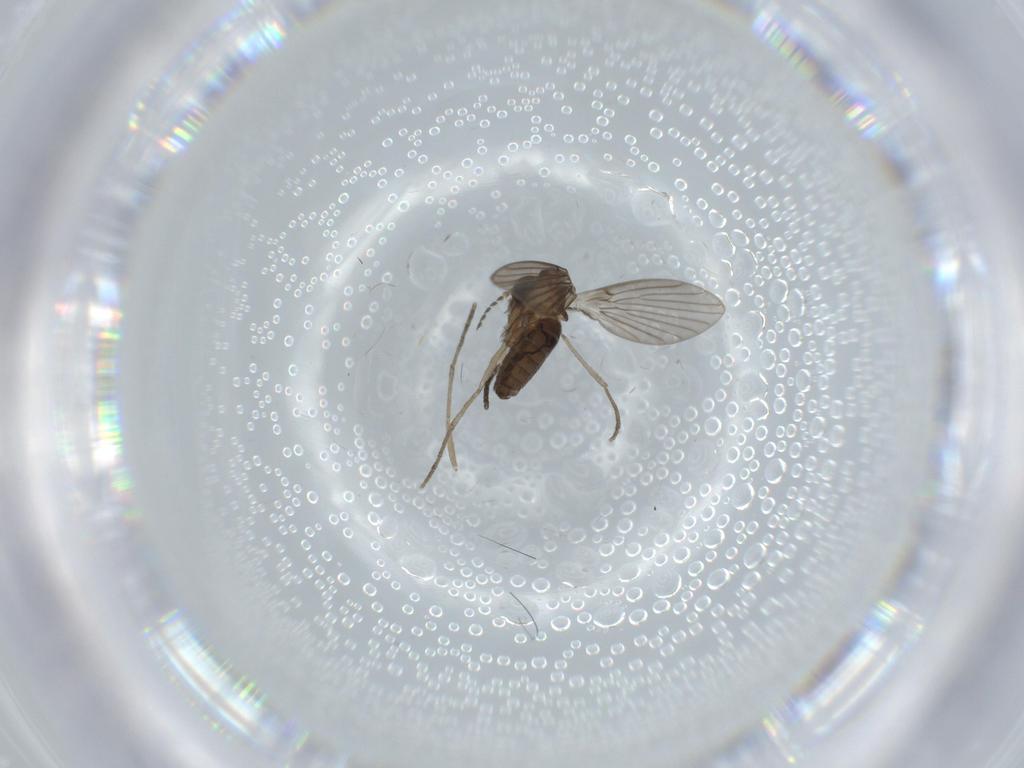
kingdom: Animalia
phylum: Arthropoda
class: Insecta
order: Diptera
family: Psychodidae
